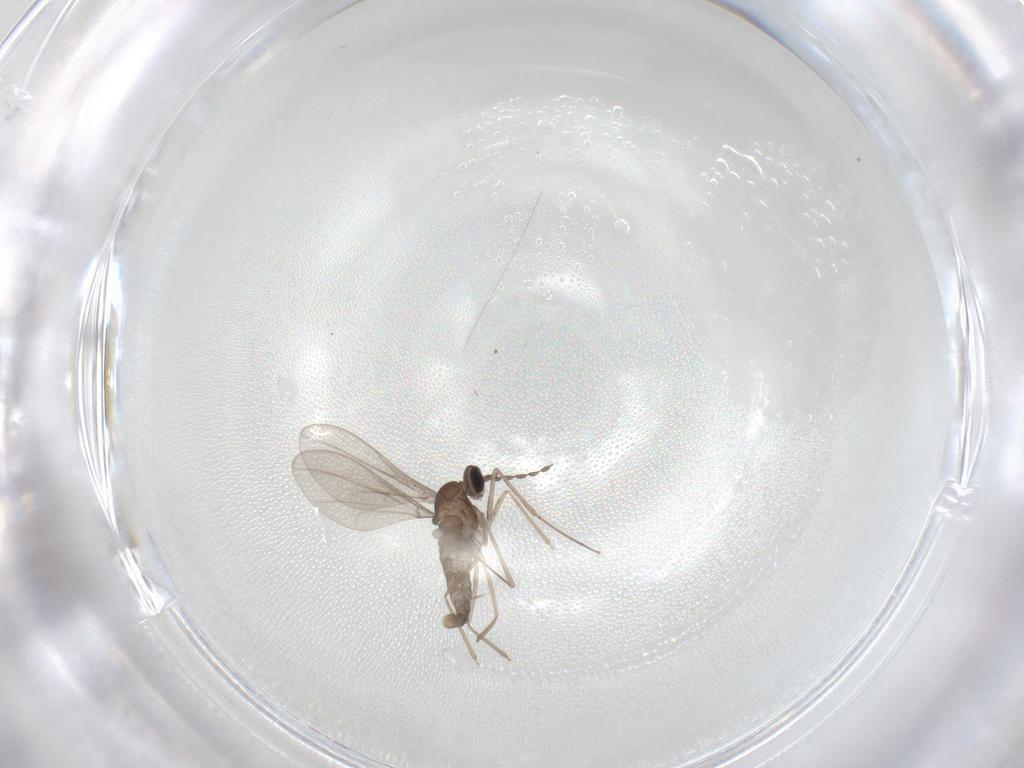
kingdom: Animalia
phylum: Arthropoda
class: Insecta
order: Diptera
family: Cecidomyiidae
